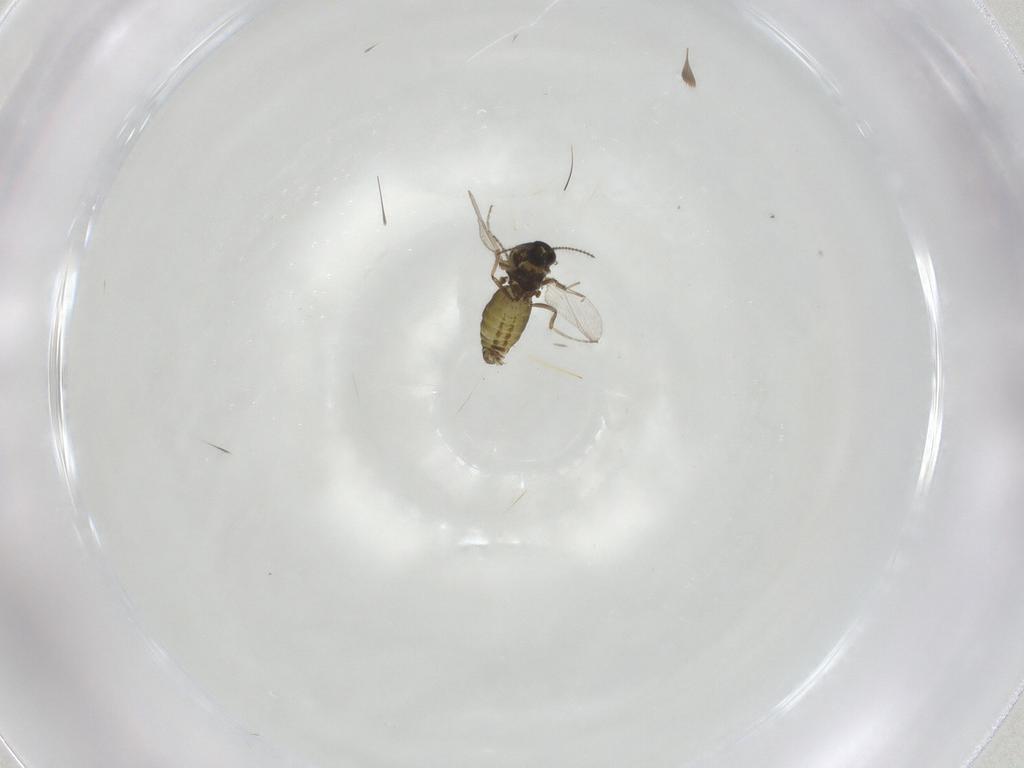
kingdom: Animalia
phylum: Arthropoda
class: Insecta
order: Diptera
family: Ceratopogonidae
